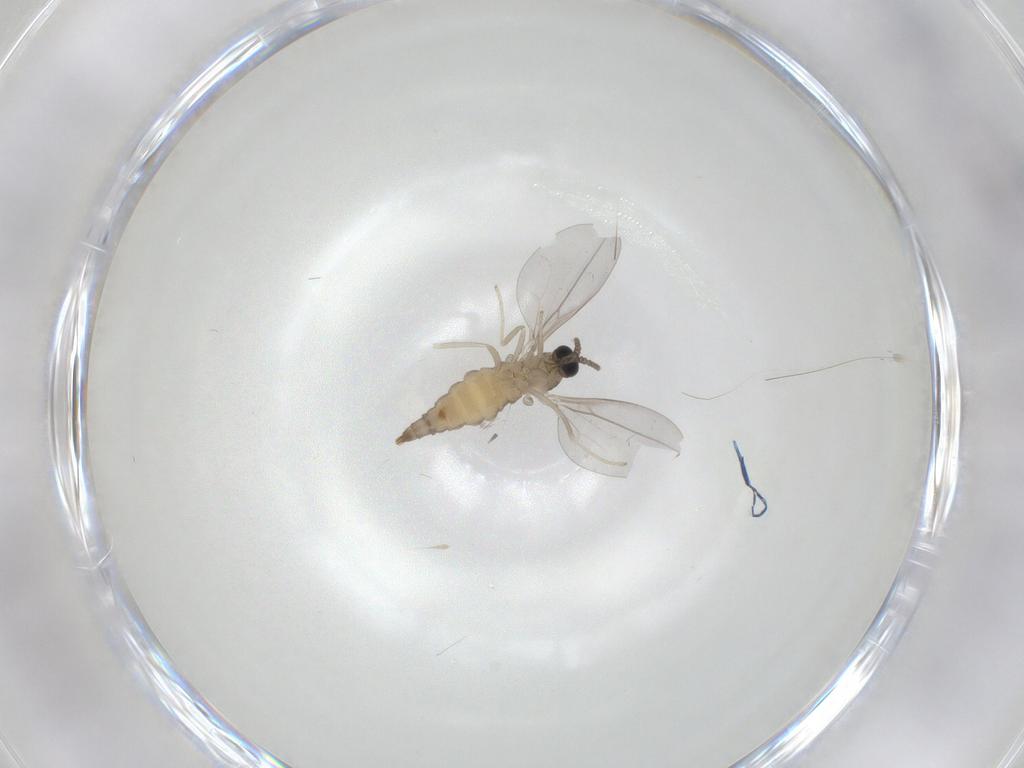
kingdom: Animalia
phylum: Arthropoda
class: Insecta
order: Diptera
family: Cecidomyiidae
